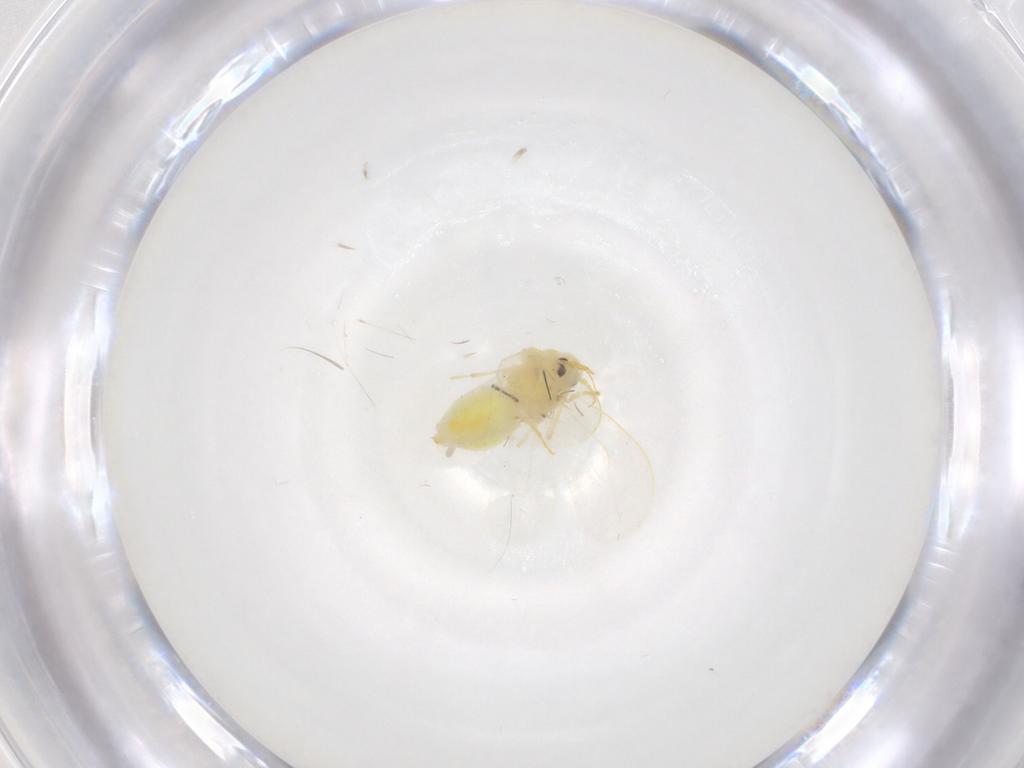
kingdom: Animalia
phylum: Arthropoda
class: Insecta
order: Hemiptera
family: Aleyrodidae
